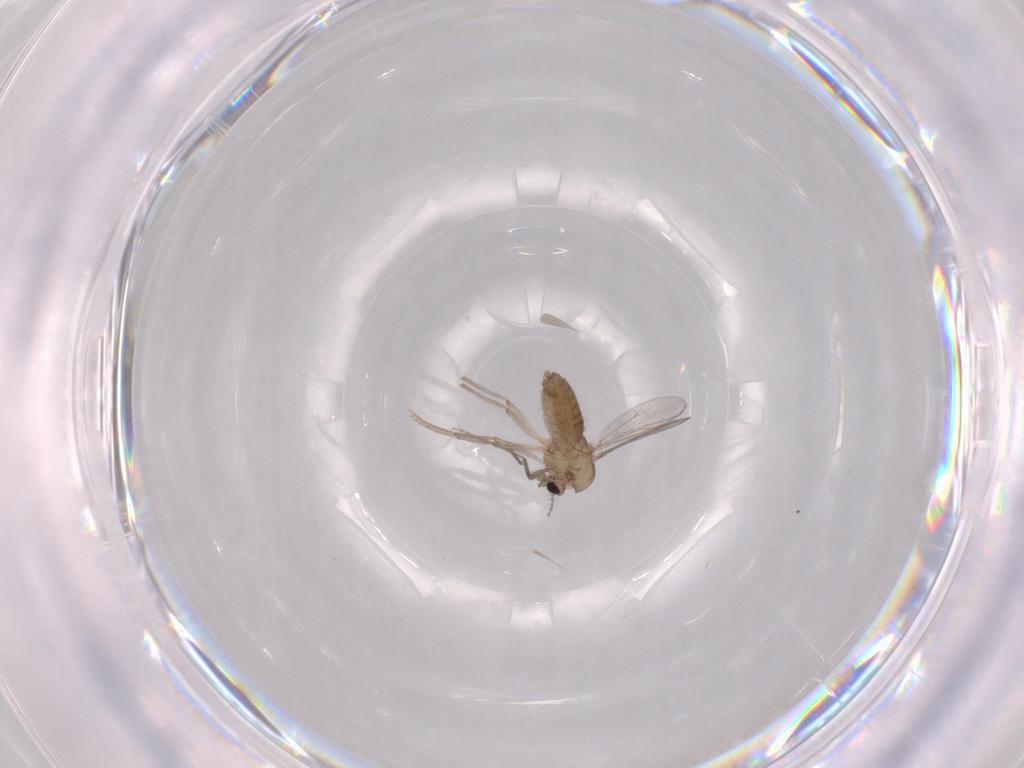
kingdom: Animalia
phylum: Arthropoda
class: Insecta
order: Diptera
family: Chironomidae
